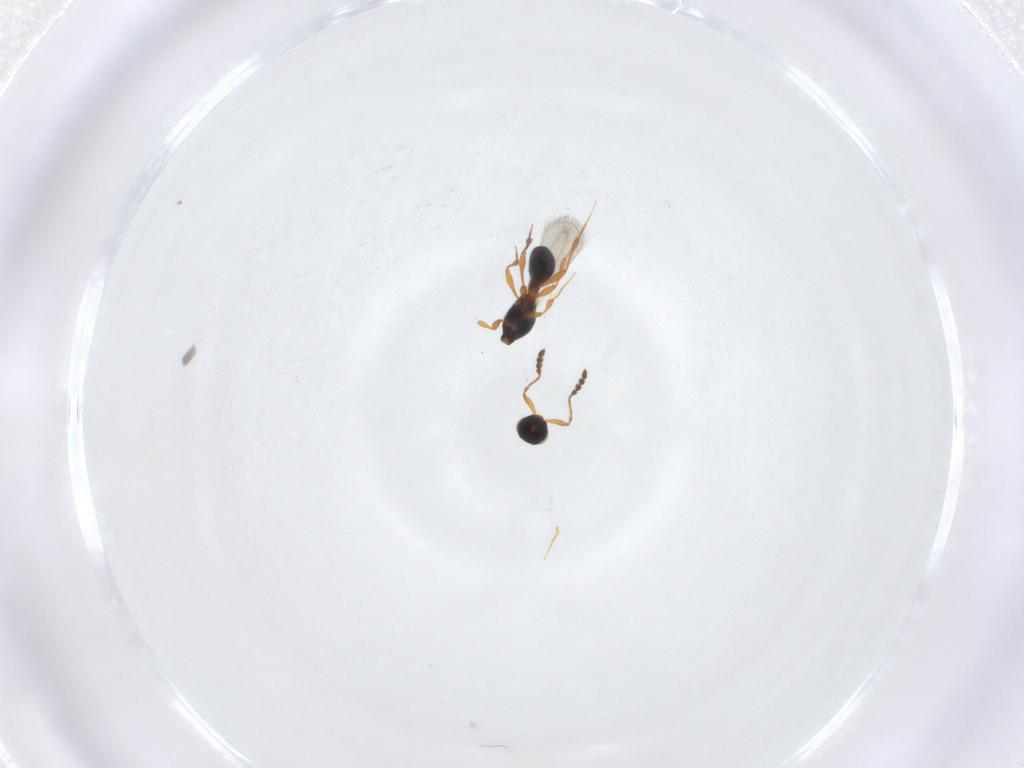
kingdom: Animalia
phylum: Arthropoda
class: Insecta
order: Hymenoptera
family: Platygastridae
